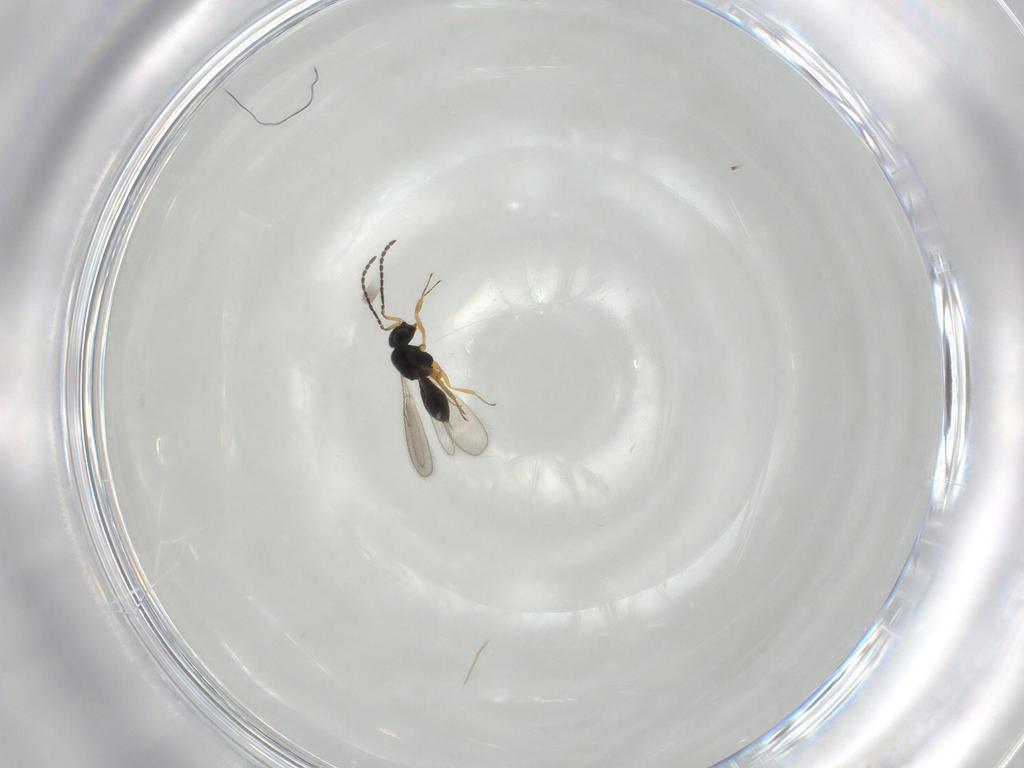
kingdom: Animalia
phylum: Arthropoda
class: Insecta
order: Hymenoptera
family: Scelionidae
